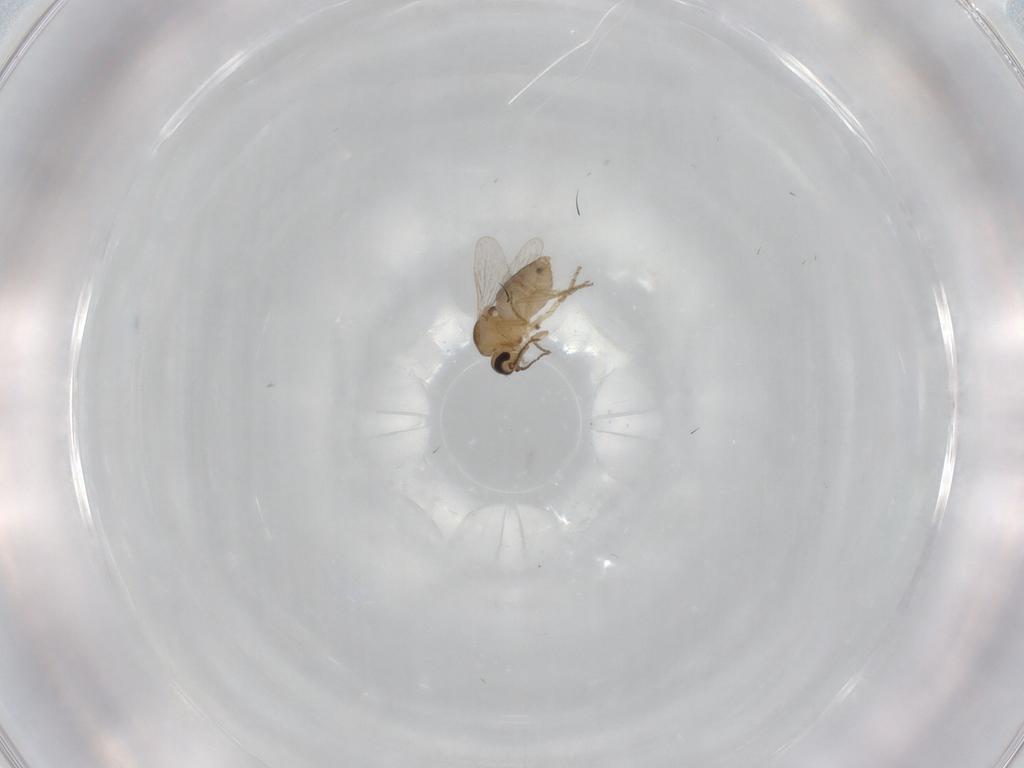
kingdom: Animalia
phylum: Arthropoda
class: Insecta
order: Diptera
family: Ceratopogonidae
